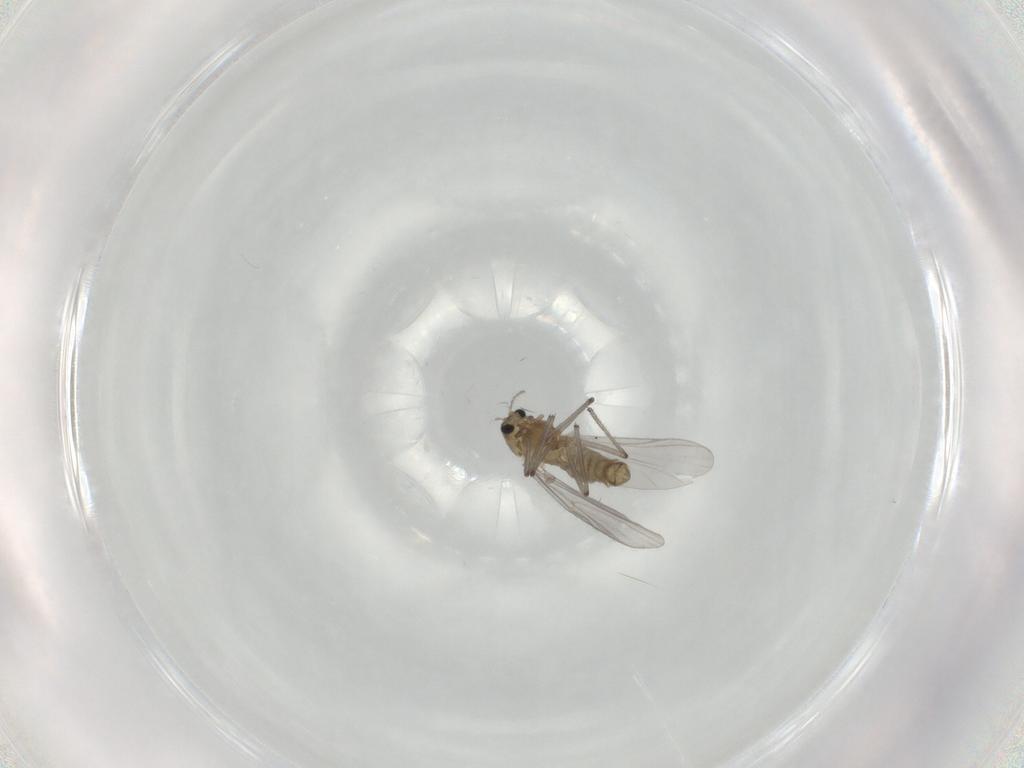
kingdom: Animalia
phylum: Arthropoda
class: Insecta
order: Diptera
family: Chironomidae
